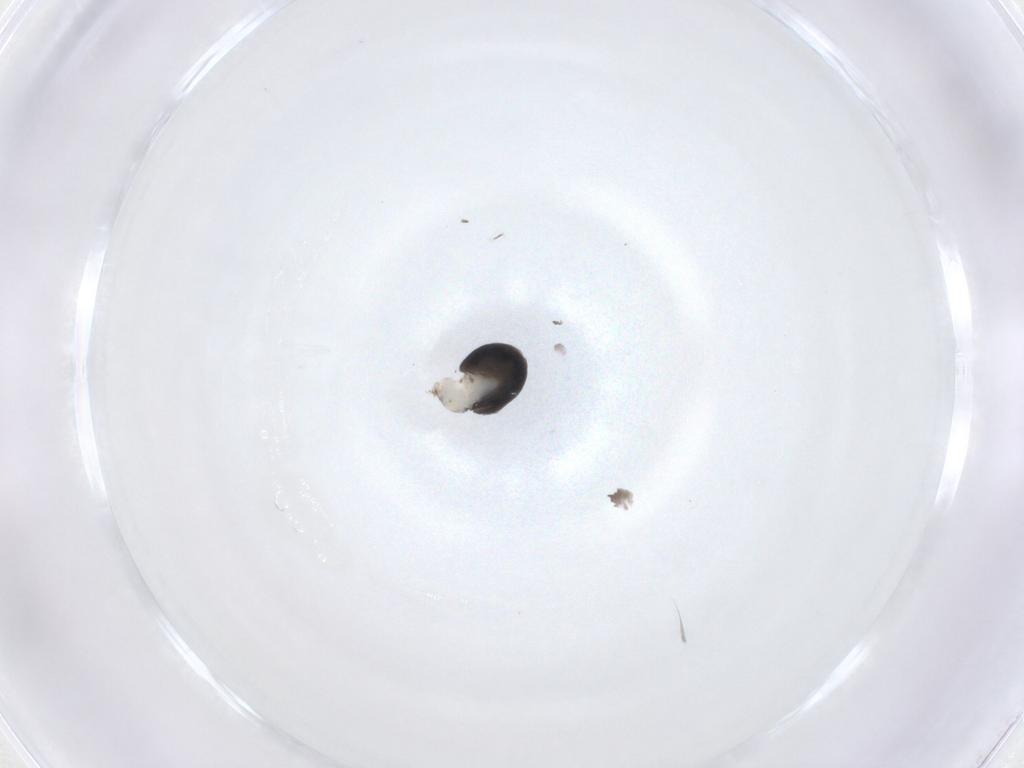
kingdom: Animalia
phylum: Arthropoda
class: Insecta
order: Hymenoptera
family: Dryinidae
